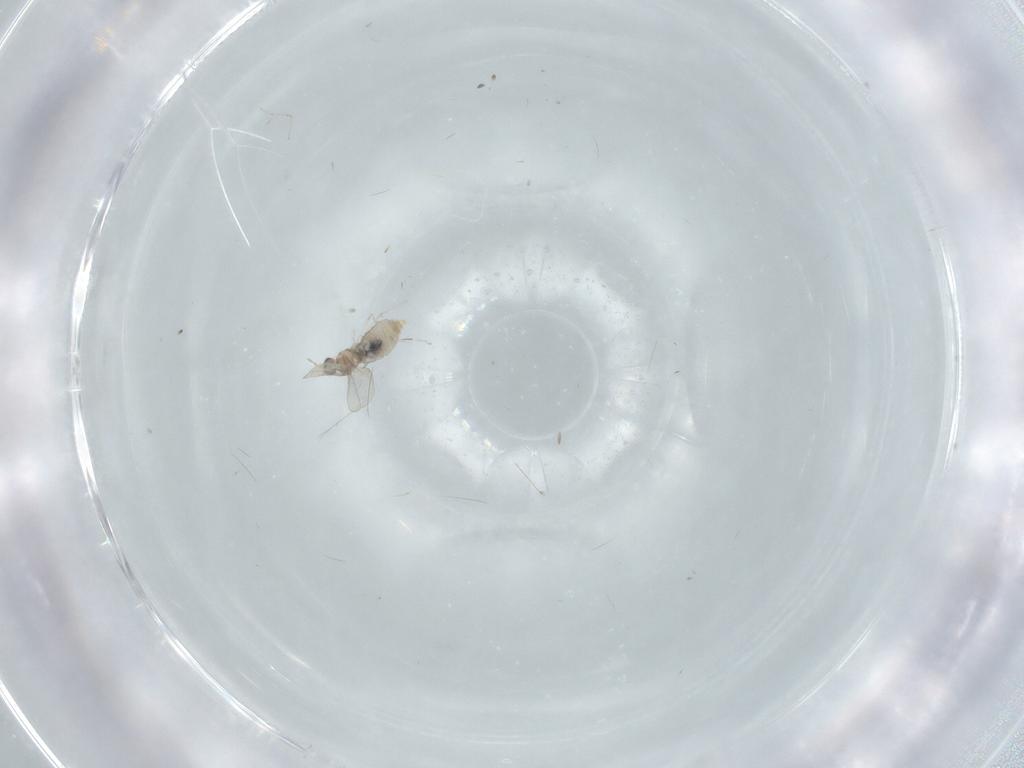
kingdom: Animalia
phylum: Arthropoda
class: Insecta
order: Diptera
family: Cecidomyiidae
